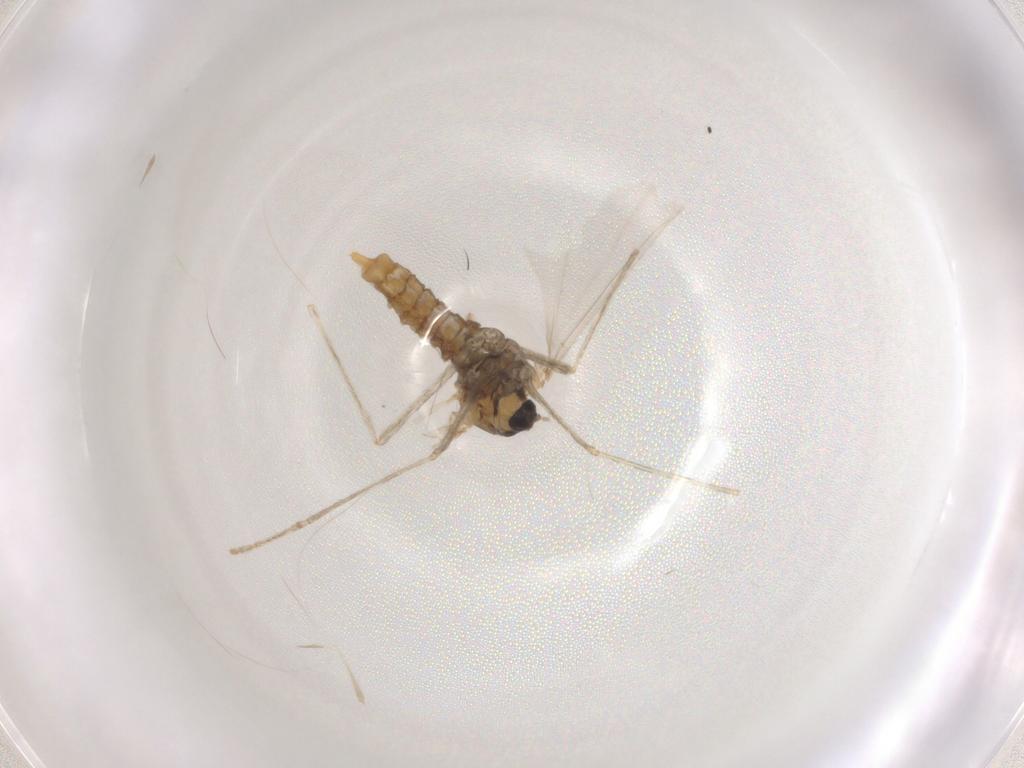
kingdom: Animalia
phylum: Arthropoda
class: Insecta
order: Diptera
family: Cecidomyiidae
